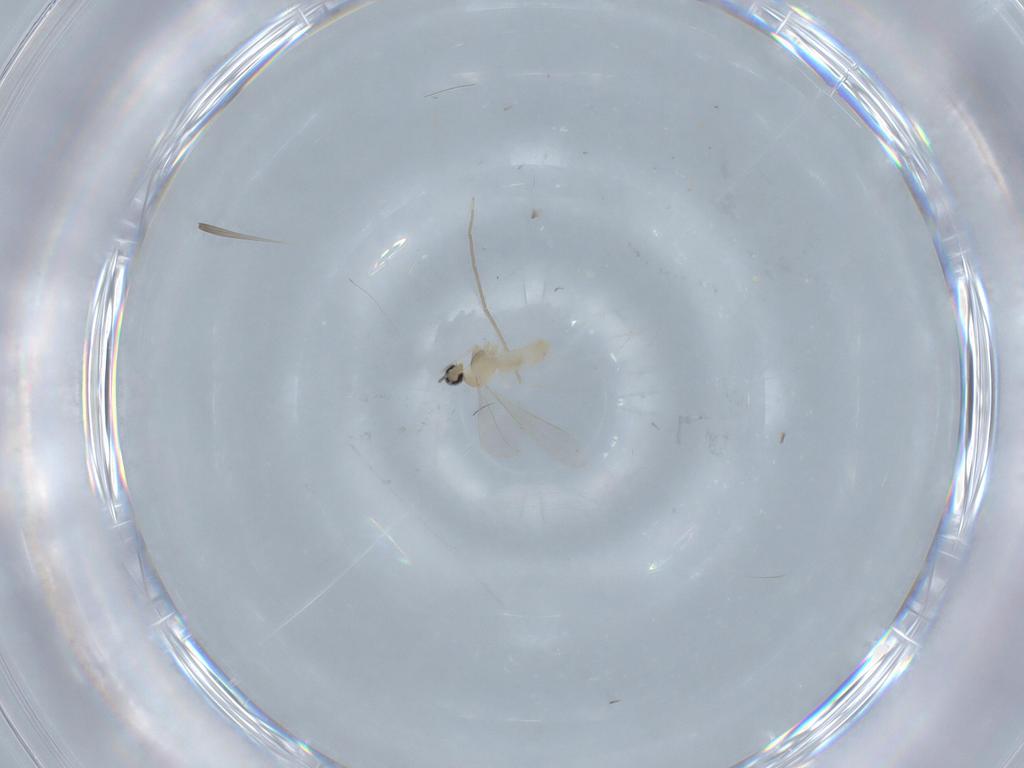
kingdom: Animalia
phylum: Arthropoda
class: Insecta
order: Diptera
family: Cecidomyiidae
